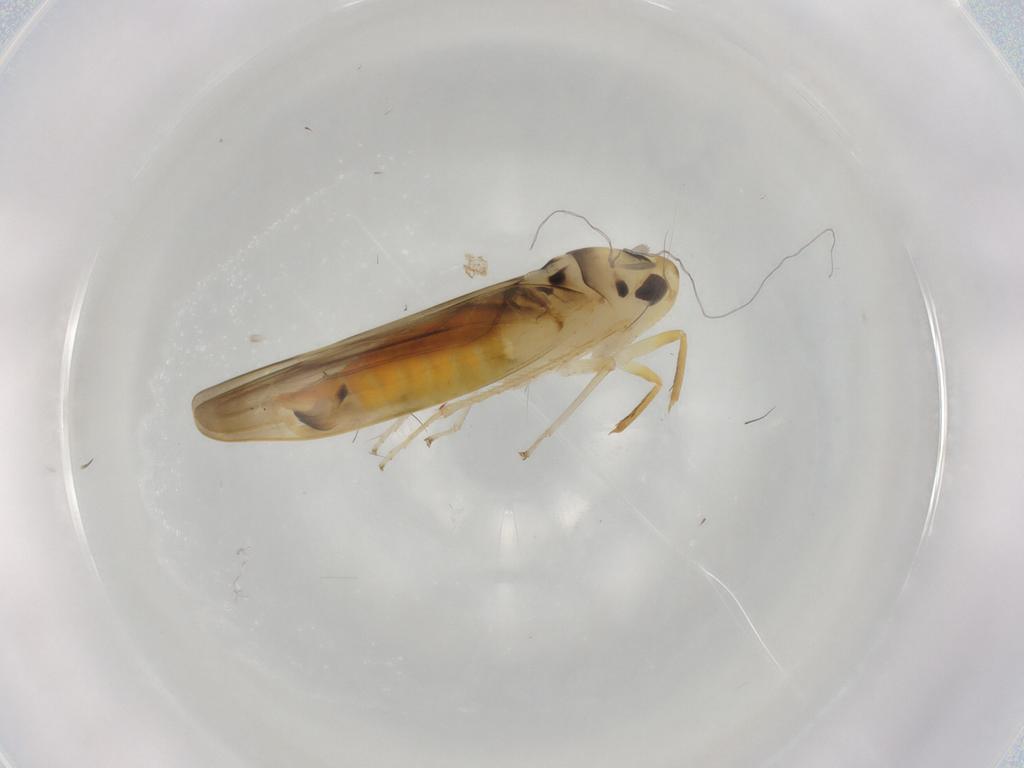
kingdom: Animalia
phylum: Arthropoda
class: Insecta
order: Hemiptera
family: Cicadellidae
